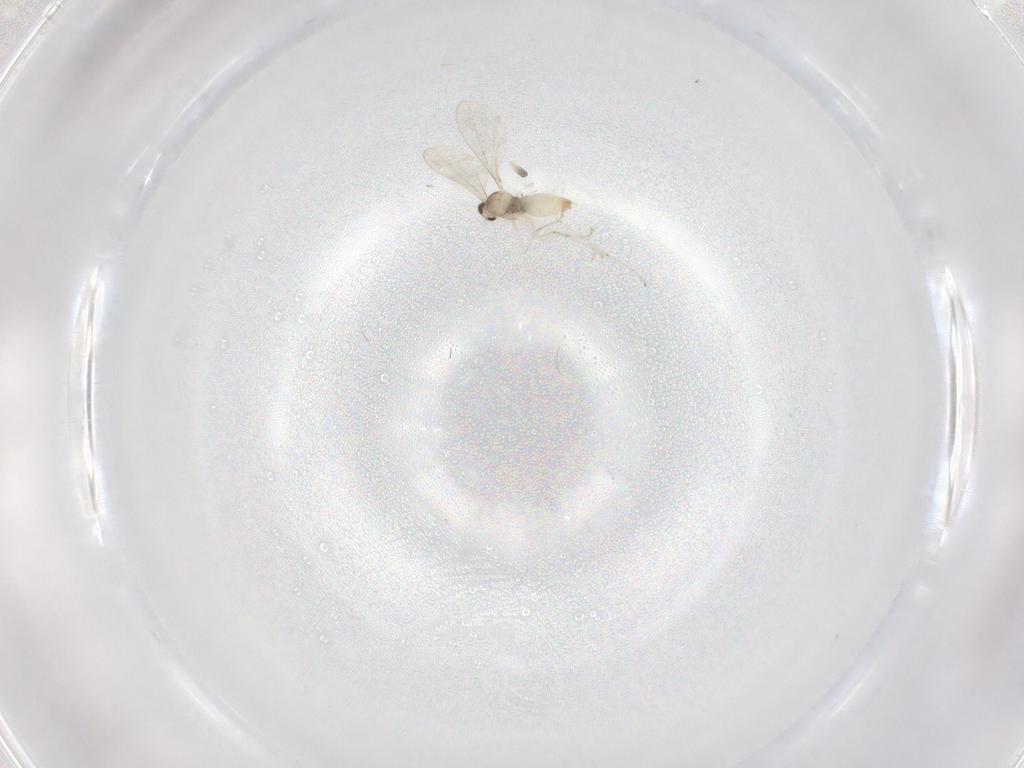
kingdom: Animalia
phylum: Arthropoda
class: Insecta
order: Diptera
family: Cecidomyiidae
